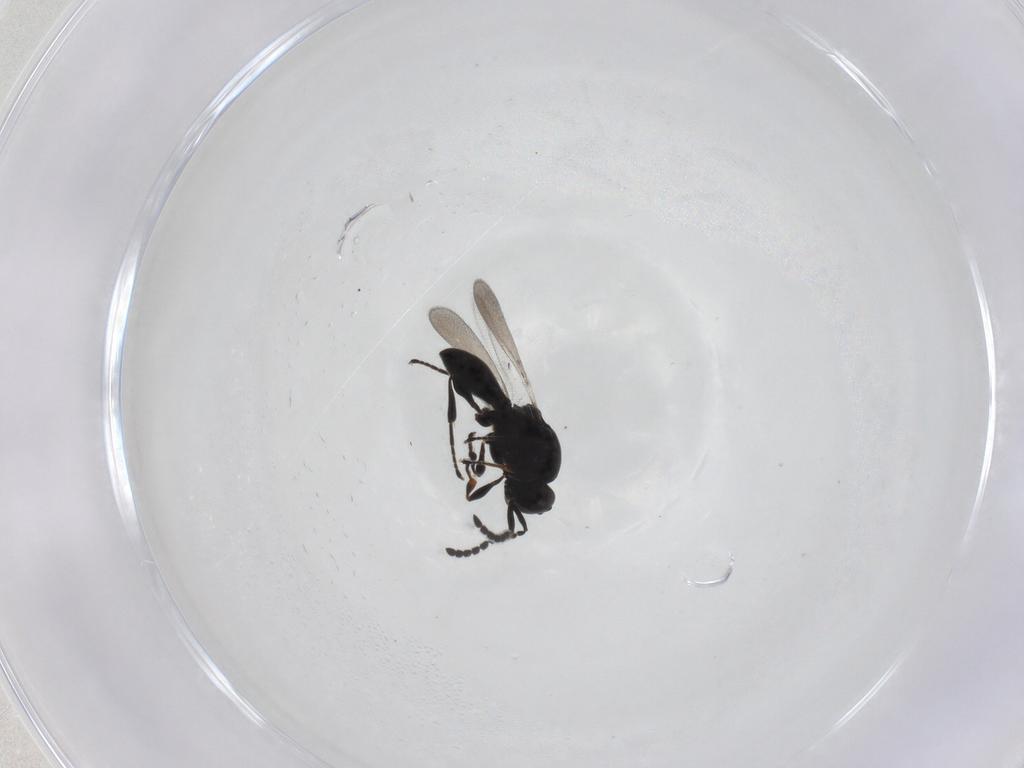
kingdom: Animalia
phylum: Arthropoda
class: Insecta
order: Hymenoptera
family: Platygastridae
